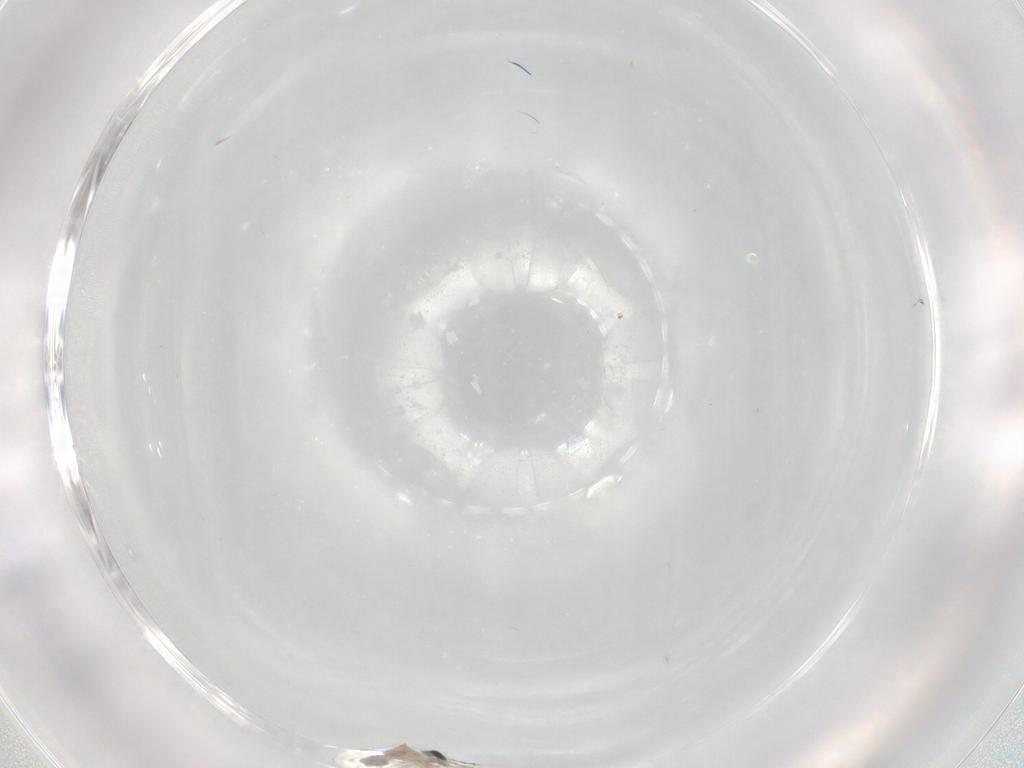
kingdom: Animalia
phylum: Arthropoda
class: Insecta
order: Diptera
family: Cecidomyiidae
